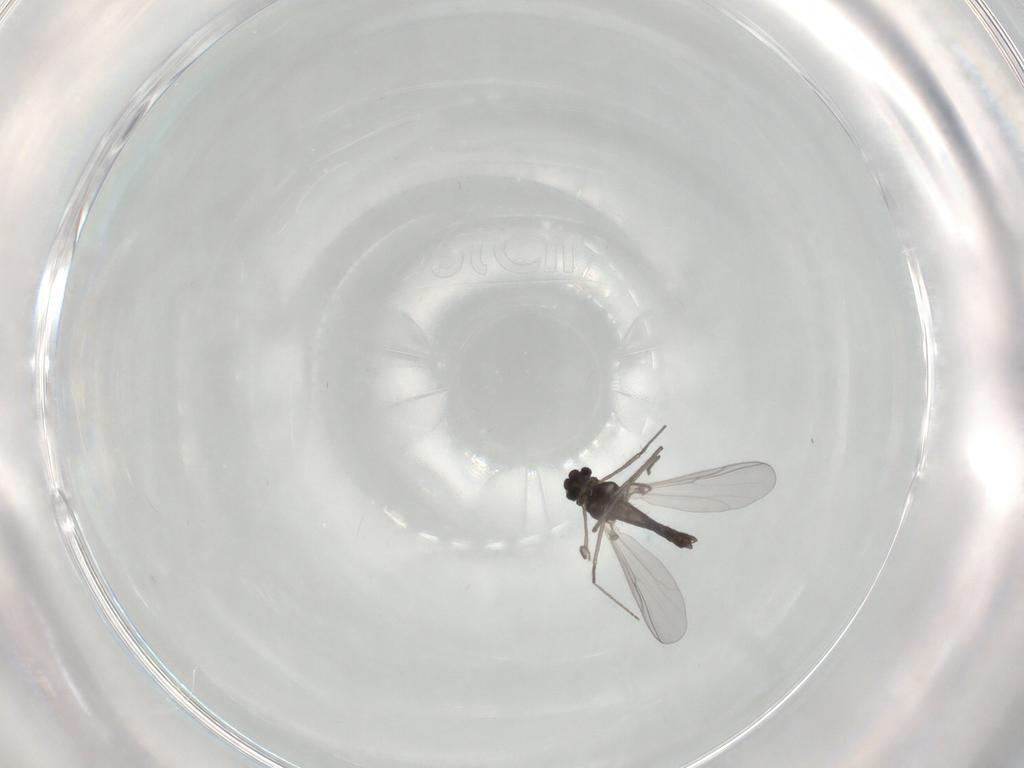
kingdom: Animalia
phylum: Arthropoda
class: Insecta
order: Diptera
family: Chironomidae
